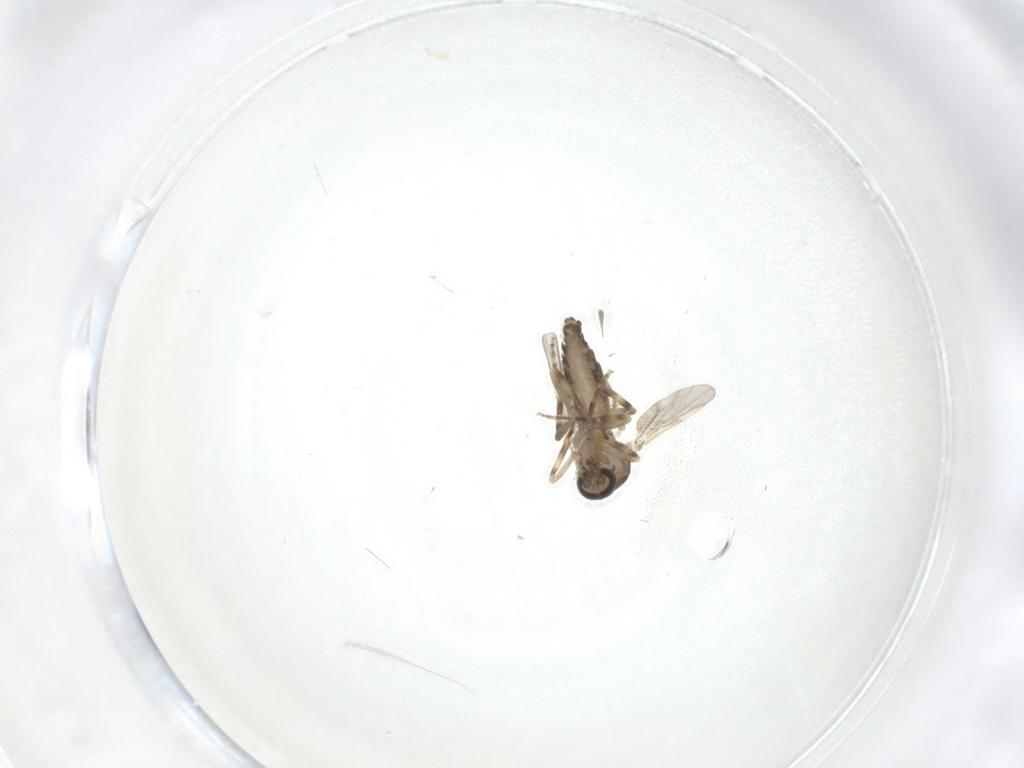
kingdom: Animalia
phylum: Arthropoda
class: Insecta
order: Diptera
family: Ceratopogonidae
